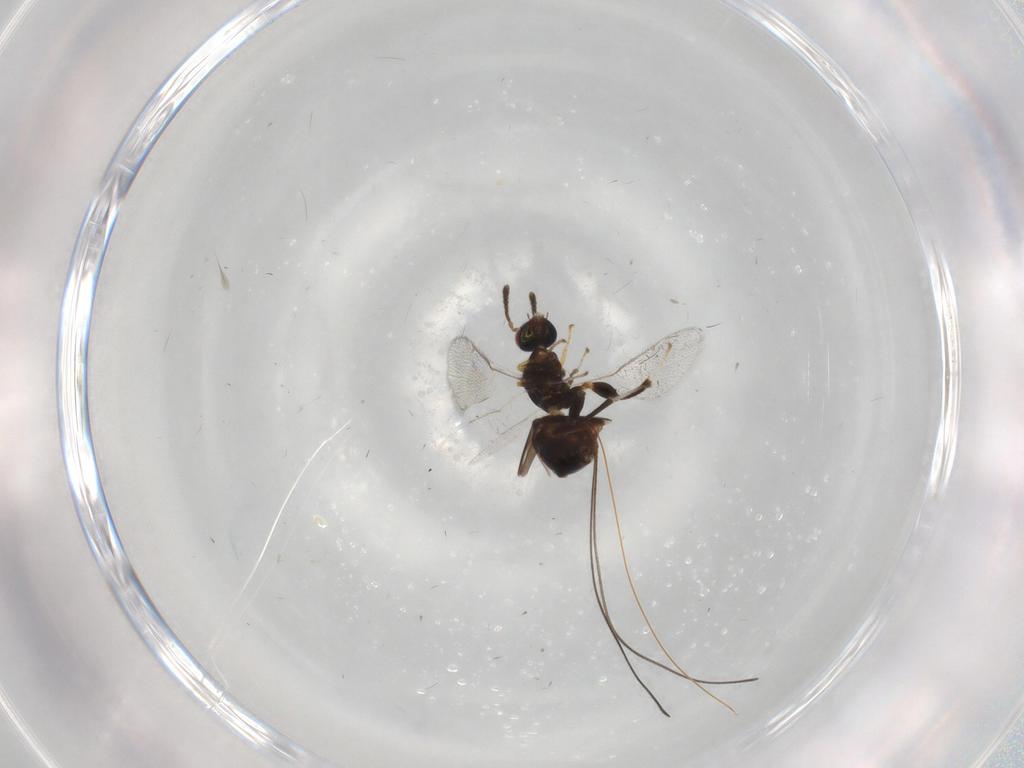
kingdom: Animalia
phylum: Arthropoda
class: Insecta
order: Hymenoptera
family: Torymidae
